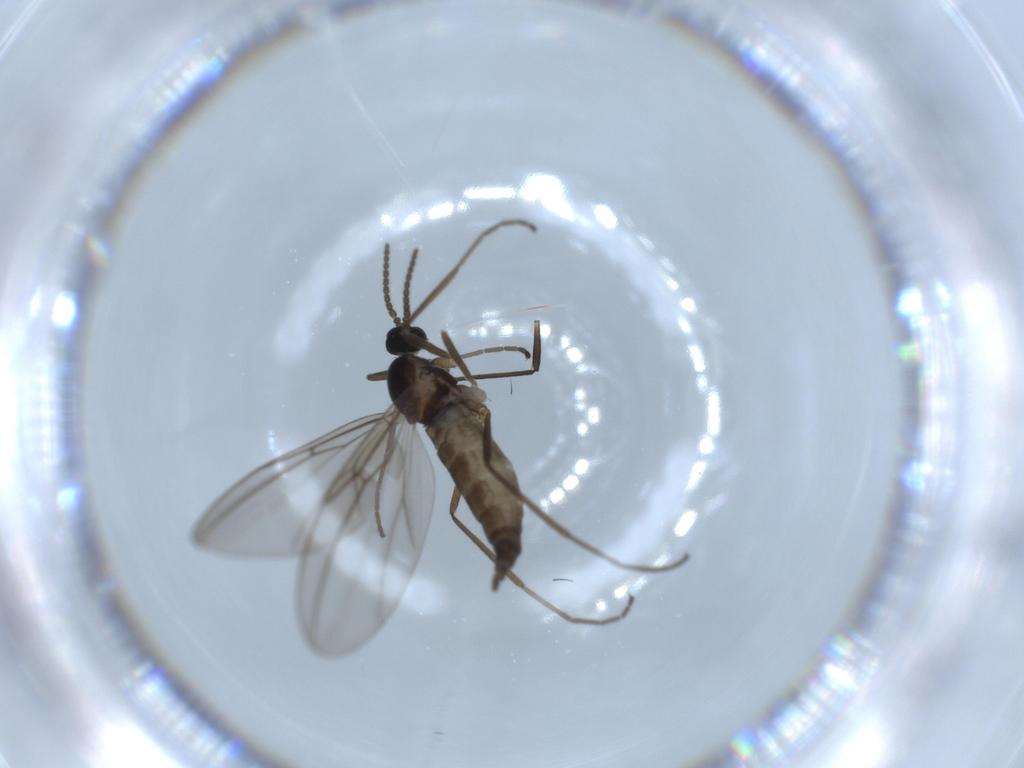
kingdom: Animalia
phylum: Arthropoda
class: Insecta
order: Diptera
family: Cecidomyiidae
